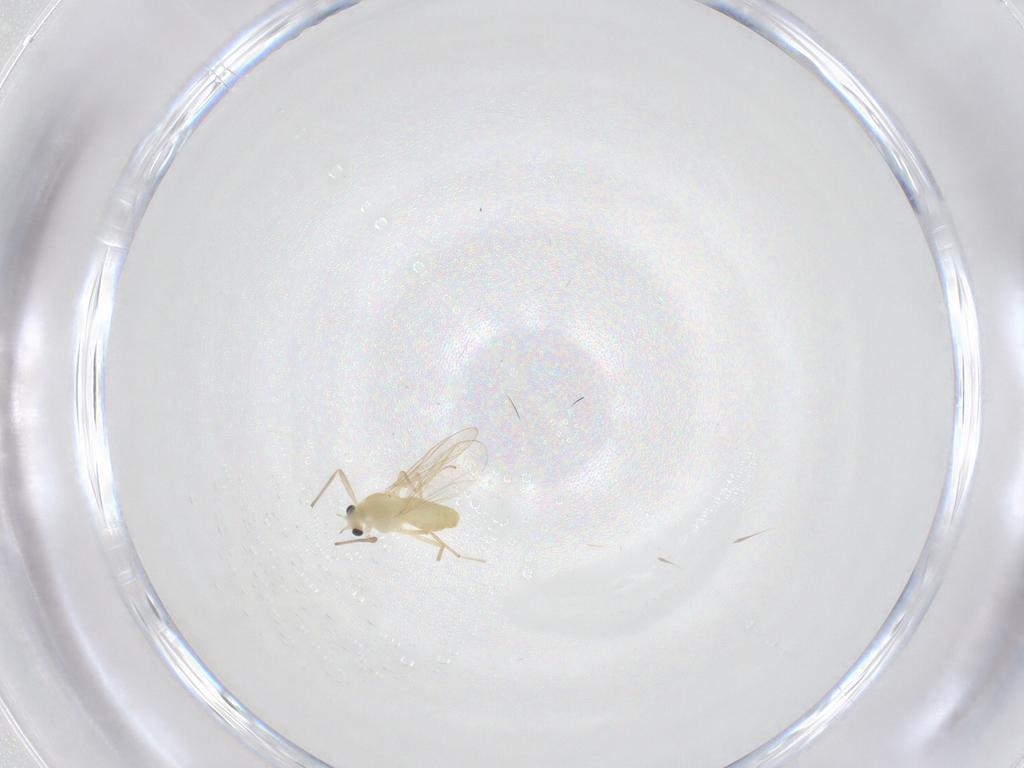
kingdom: Animalia
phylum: Arthropoda
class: Insecta
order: Diptera
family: Chironomidae
